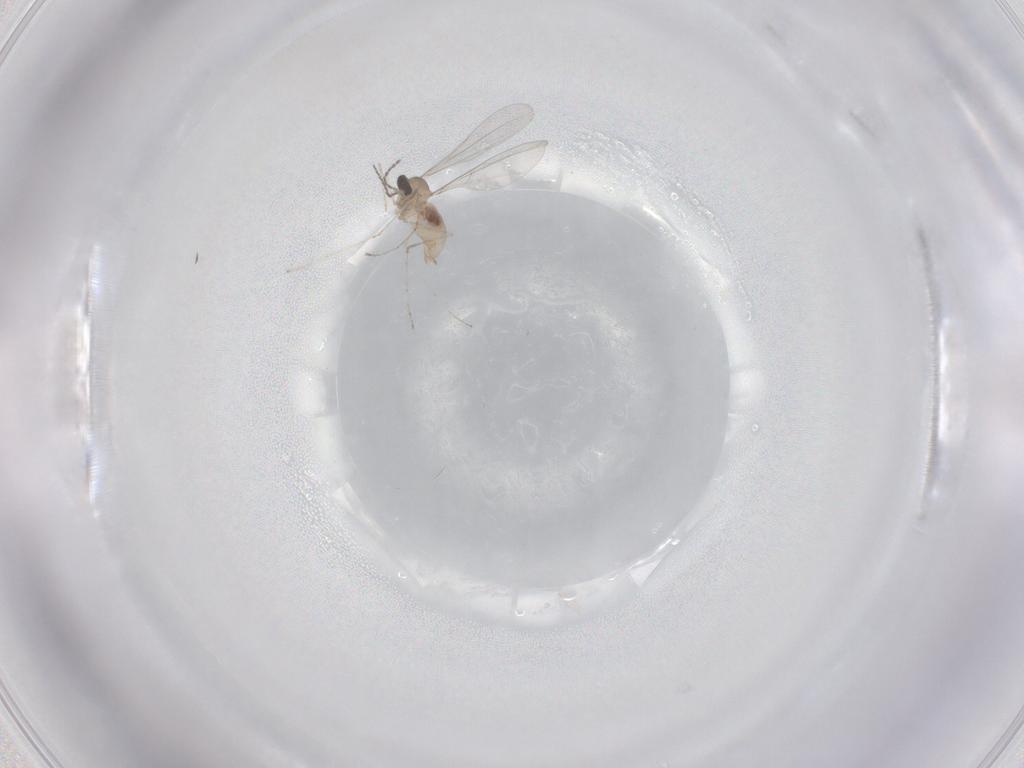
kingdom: Animalia
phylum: Arthropoda
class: Insecta
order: Diptera
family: Cecidomyiidae
